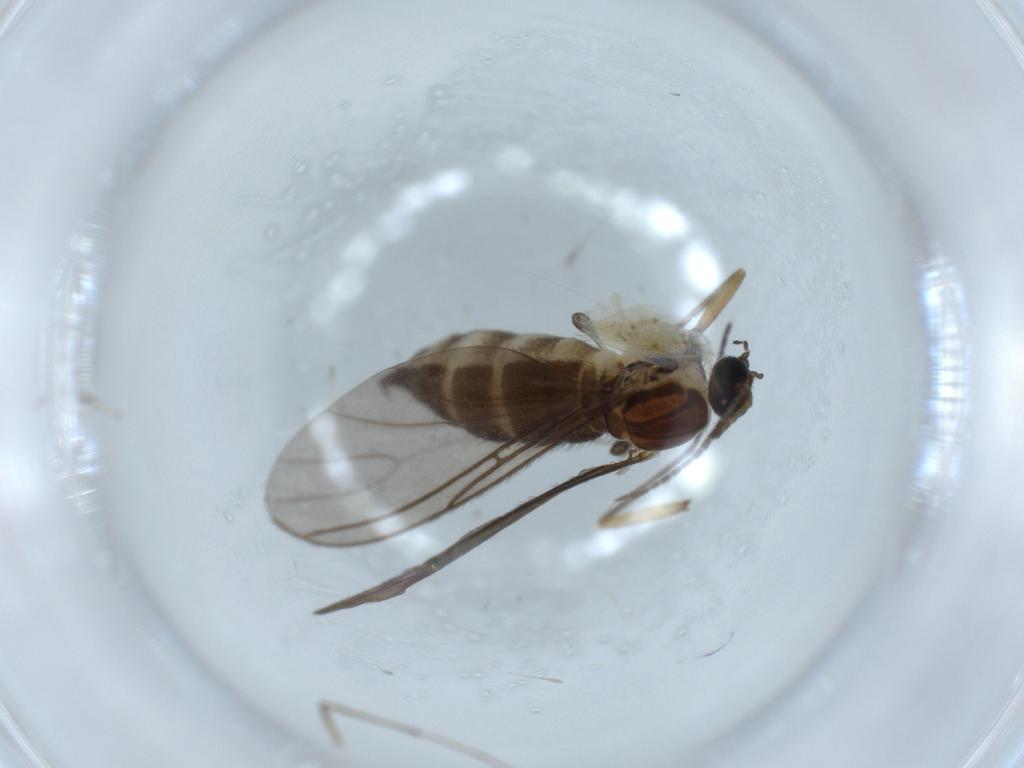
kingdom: Animalia
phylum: Arthropoda
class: Insecta
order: Diptera
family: Sciaridae
